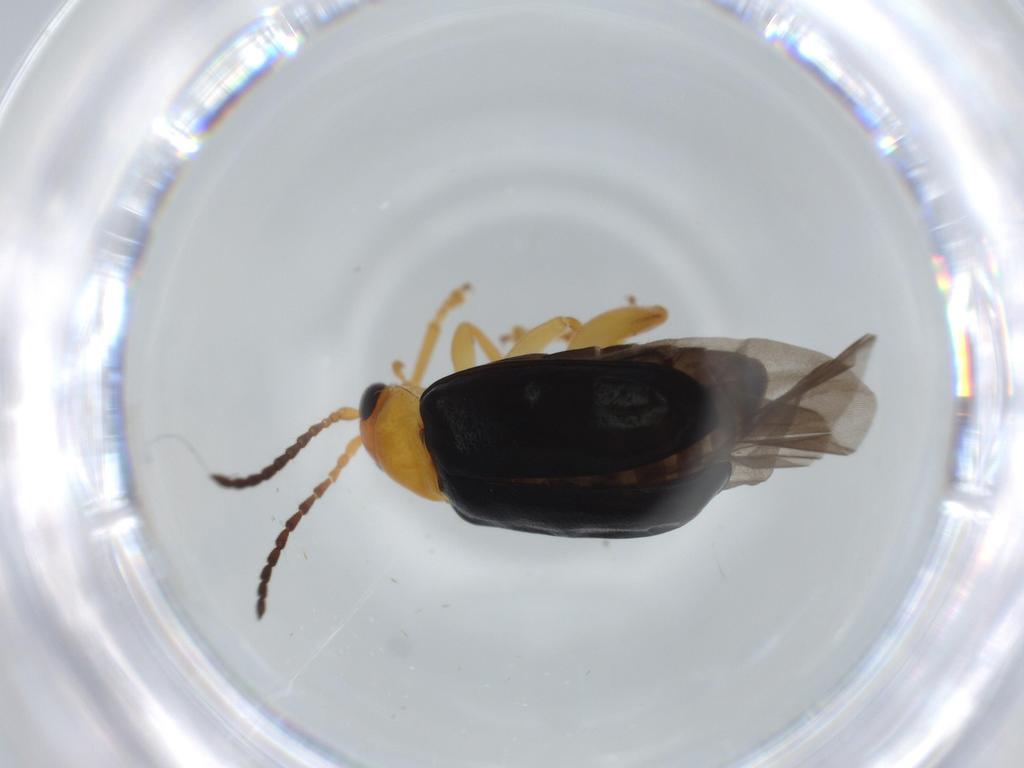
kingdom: Animalia
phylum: Arthropoda
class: Insecta
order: Coleoptera
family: Chrysomelidae
